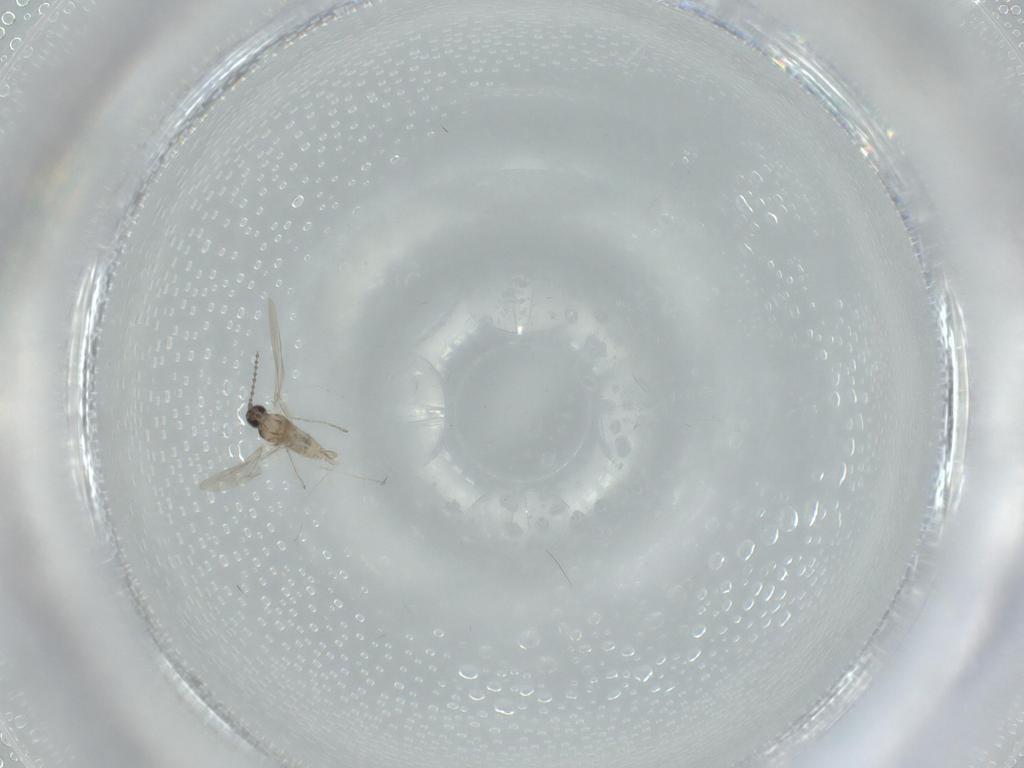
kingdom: Animalia
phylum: Arthropoda
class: Insecta
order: Diptera
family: Cecidomyiidae
